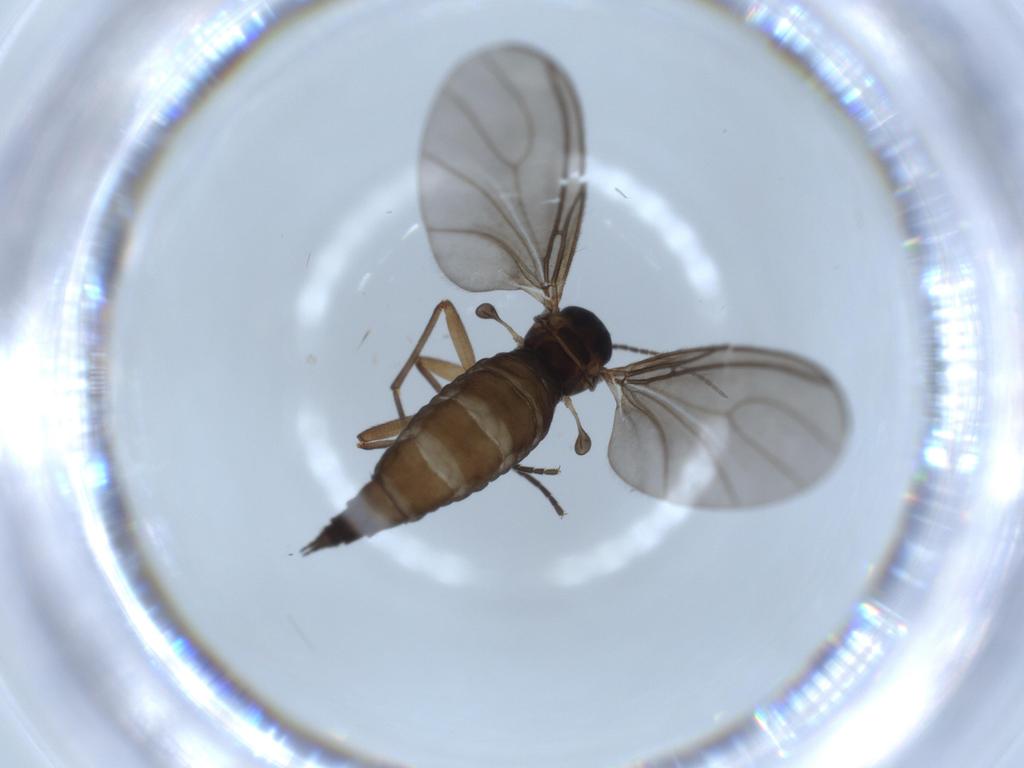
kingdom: Animalia
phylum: Arthropoda
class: Insecta
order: Diptera
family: Sciaridae
